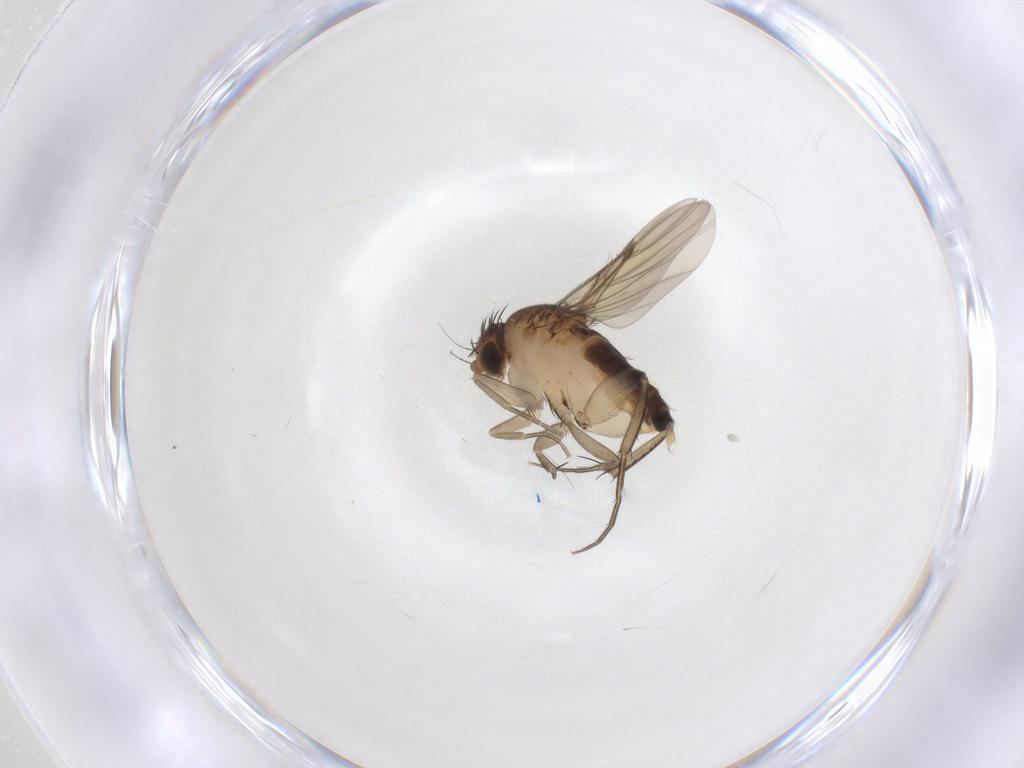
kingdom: Animalia
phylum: Arthropoda
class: Insecta
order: Diptera
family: Phoridae
